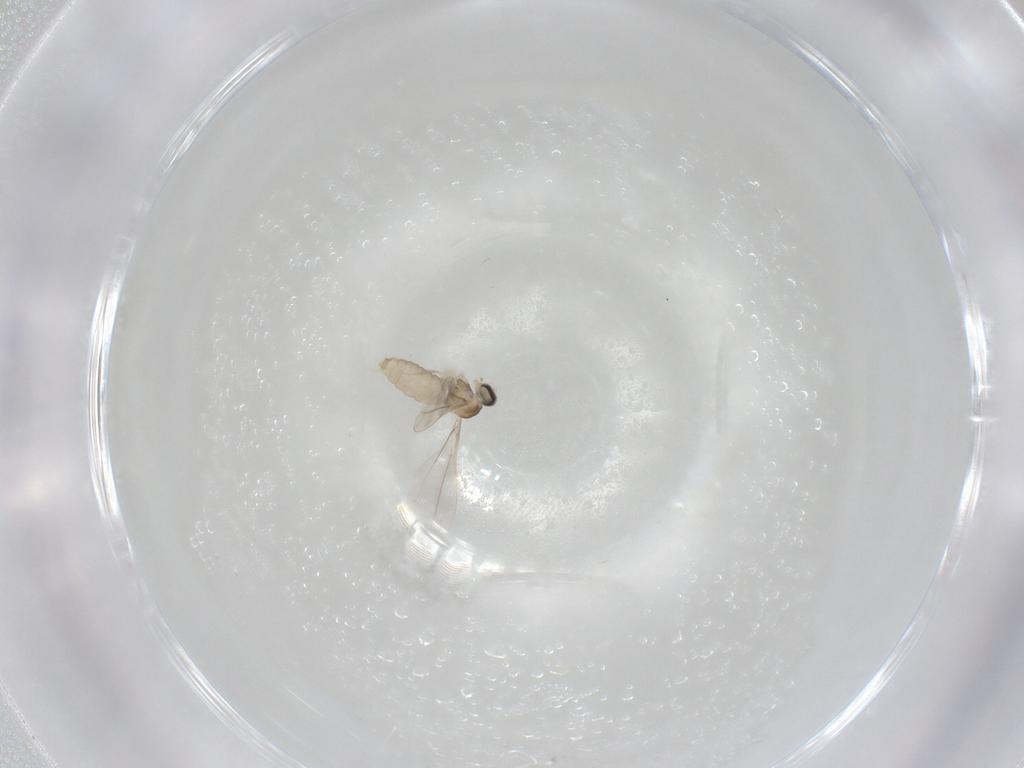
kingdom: Animalia
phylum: Arthropoda
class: Insecta
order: Diptera
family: Cecidomyiidae
